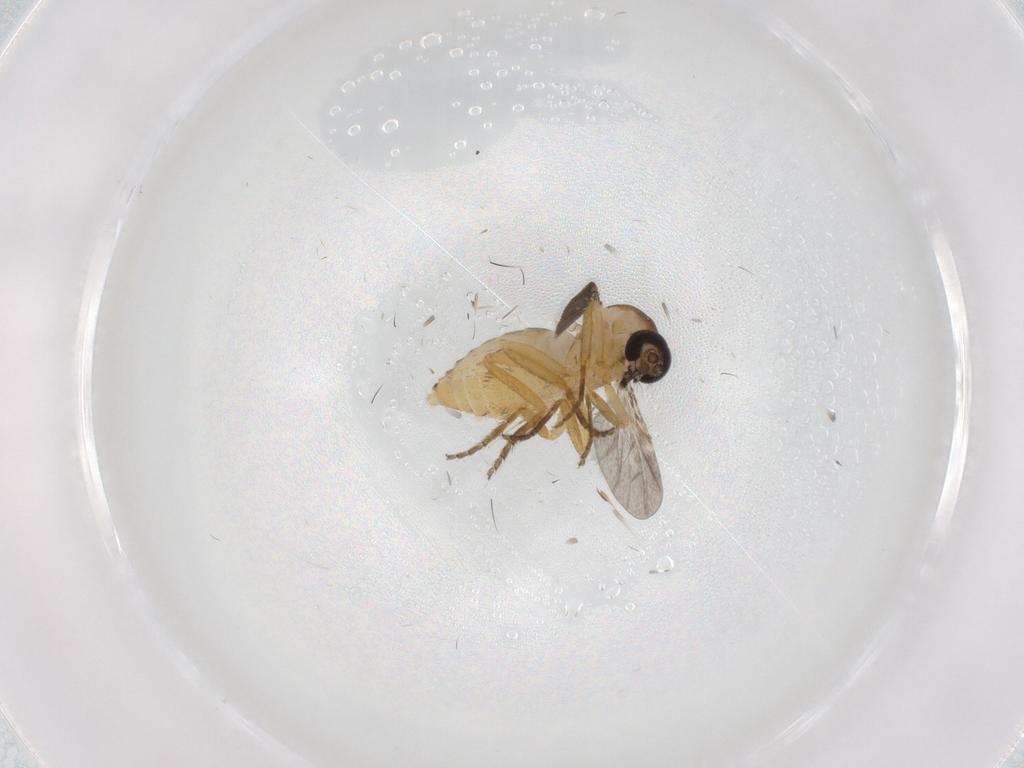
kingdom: Animalia
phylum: Arthropoda
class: Insecta
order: Diptera
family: Ceratopogonidae
